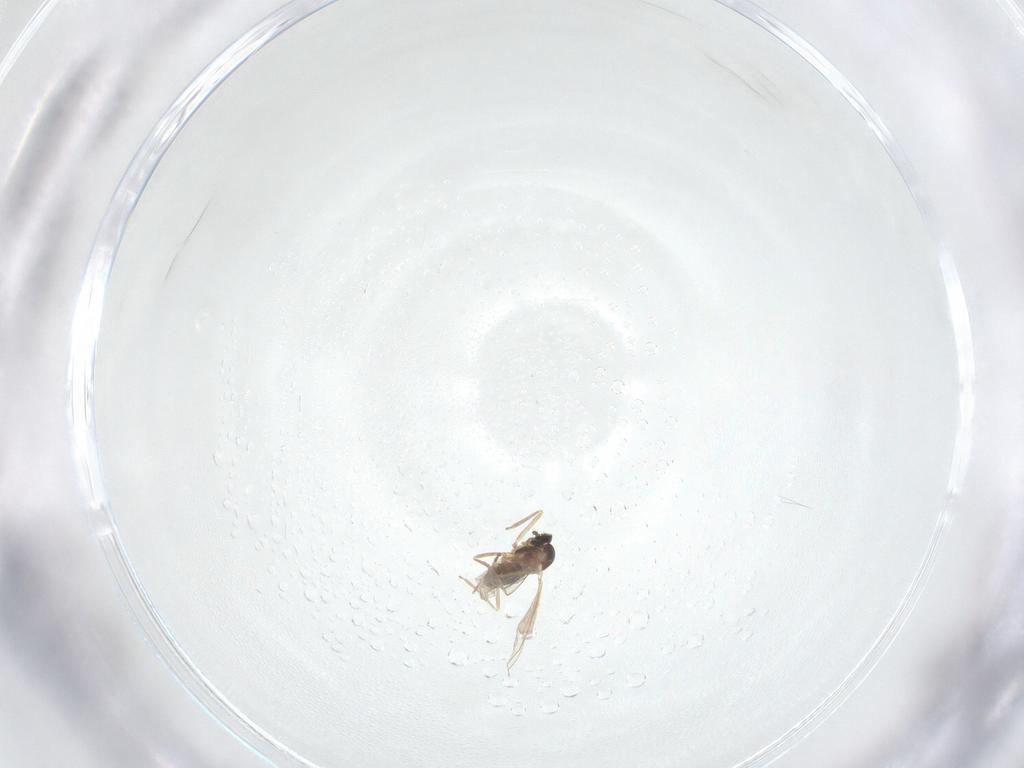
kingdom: Animalia
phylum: Arthropoda
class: Insecta
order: Diptera
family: Cecidomyiidae
